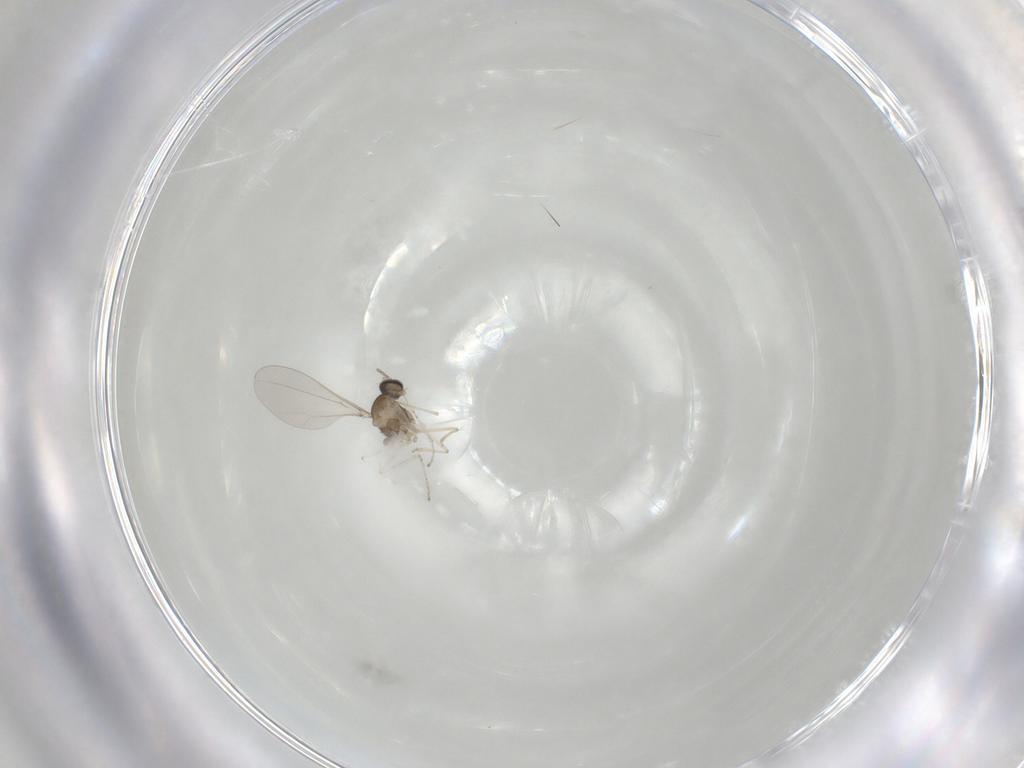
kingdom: Animalia
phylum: Arthropoda
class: Insecta
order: Diptera
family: Cecidomyiidae
